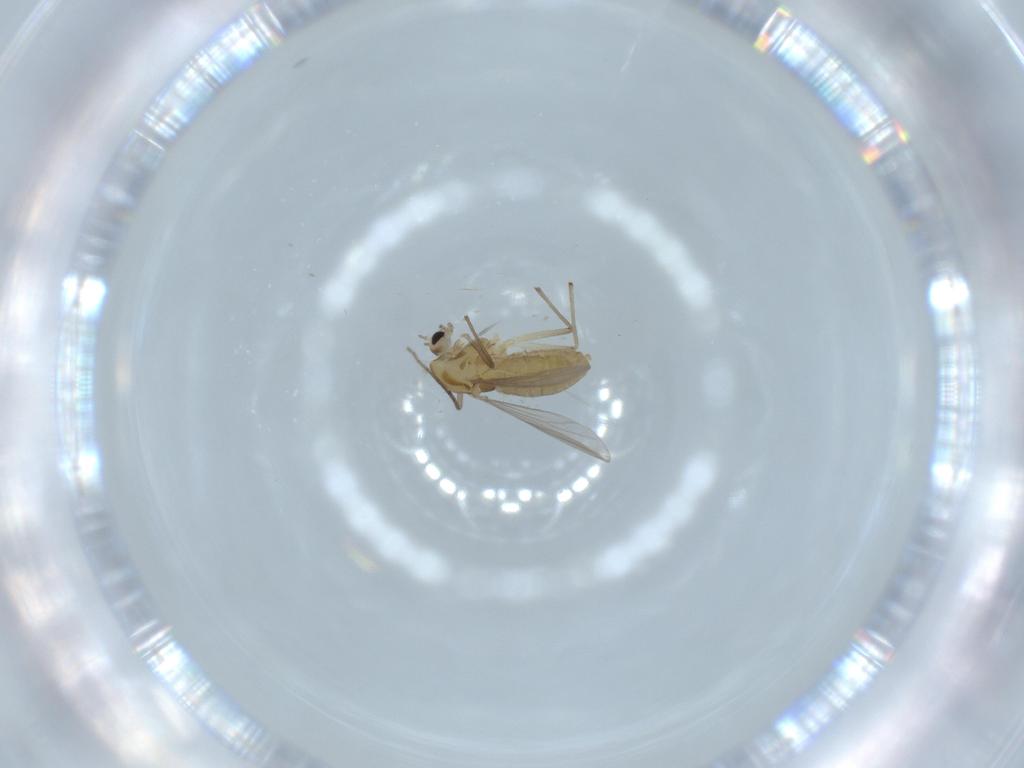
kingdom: Animalia
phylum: Arthropoda
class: Insecta
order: Diptera
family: Chironomidae
